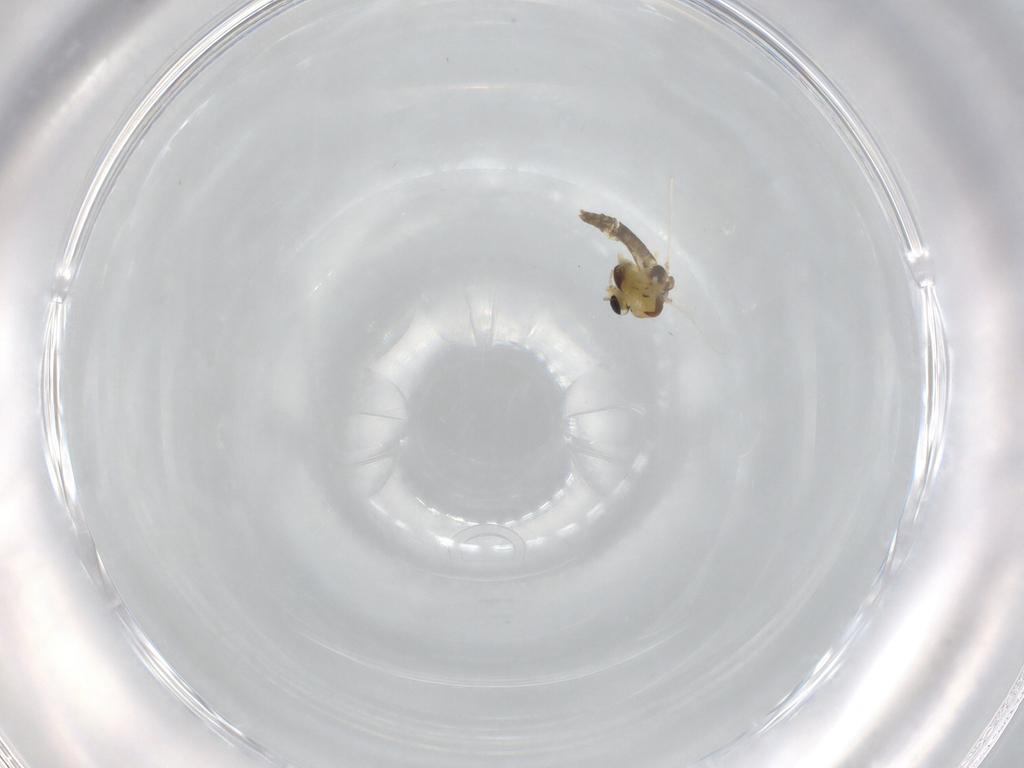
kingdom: Animalia
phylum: Arthropoda
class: Insecta
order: Diptera
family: Chironomidae
